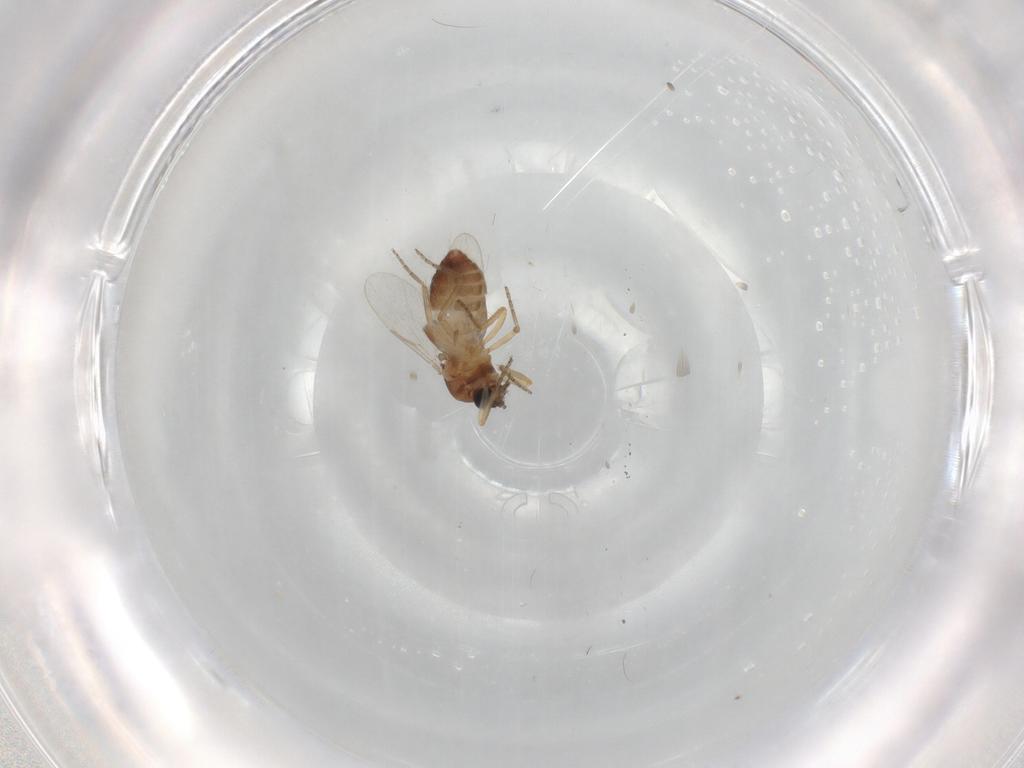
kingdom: Animalia
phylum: Arthropoda
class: Insecta
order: Diptera
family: Ceratopogonidae
